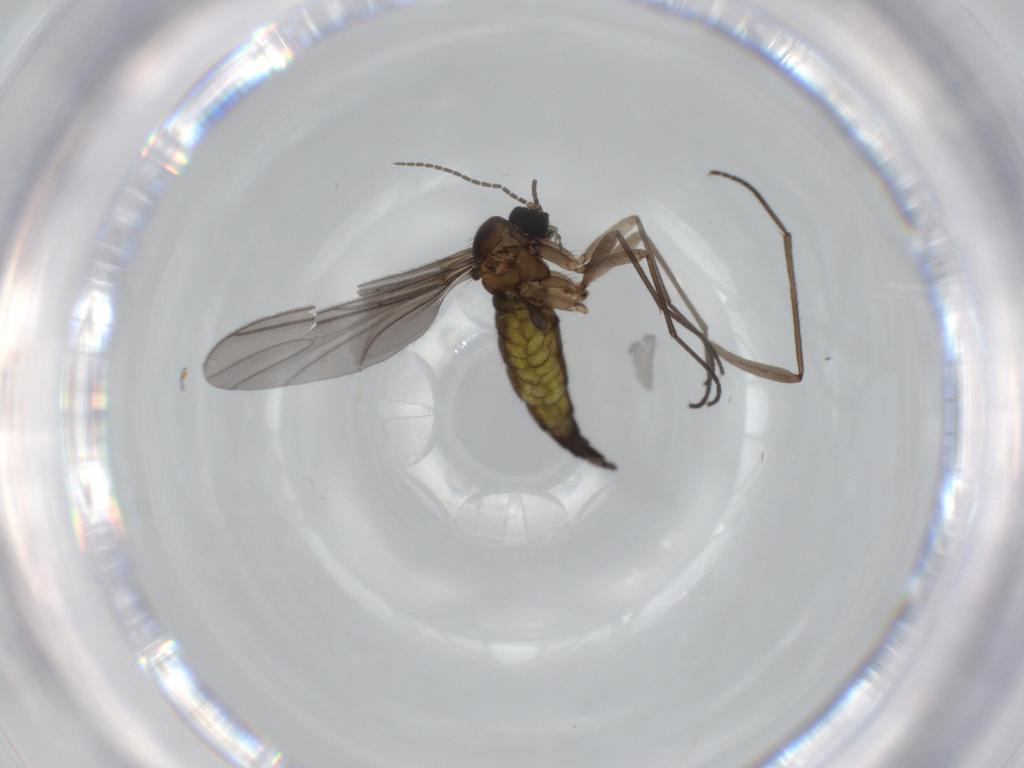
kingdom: Animalia
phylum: Arthropoda
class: Insecta
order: Diptera
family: Sciaridae
